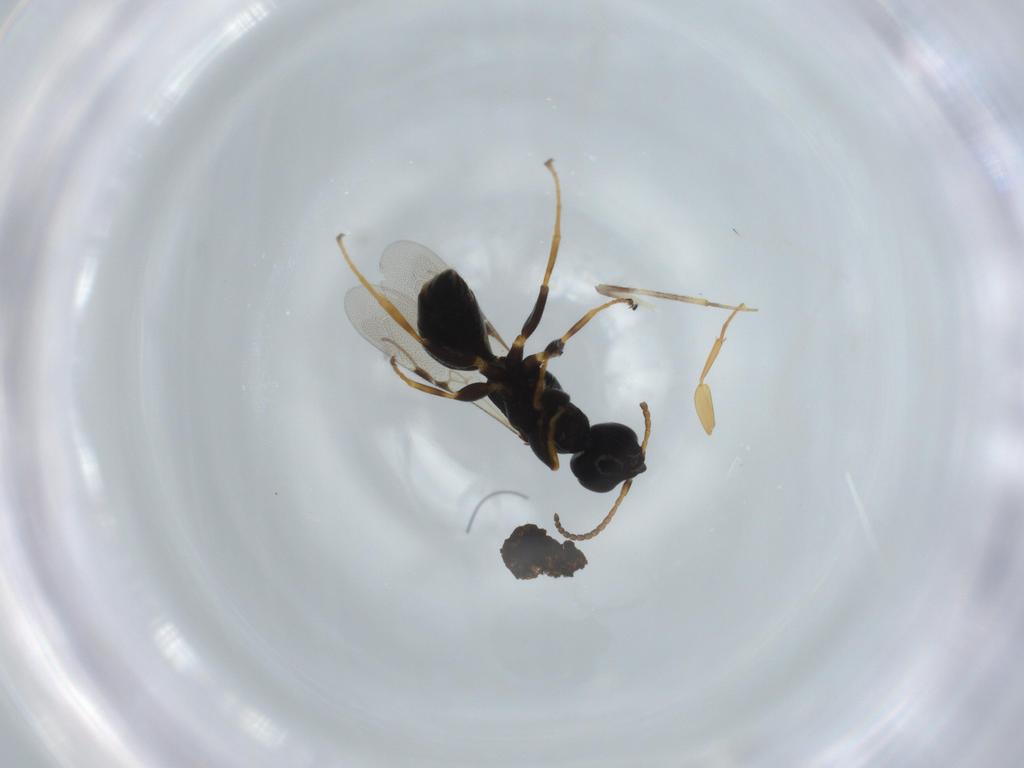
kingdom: Animalia
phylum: Arthropoda
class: Insecta
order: Hymenoptera
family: Bethylidae
